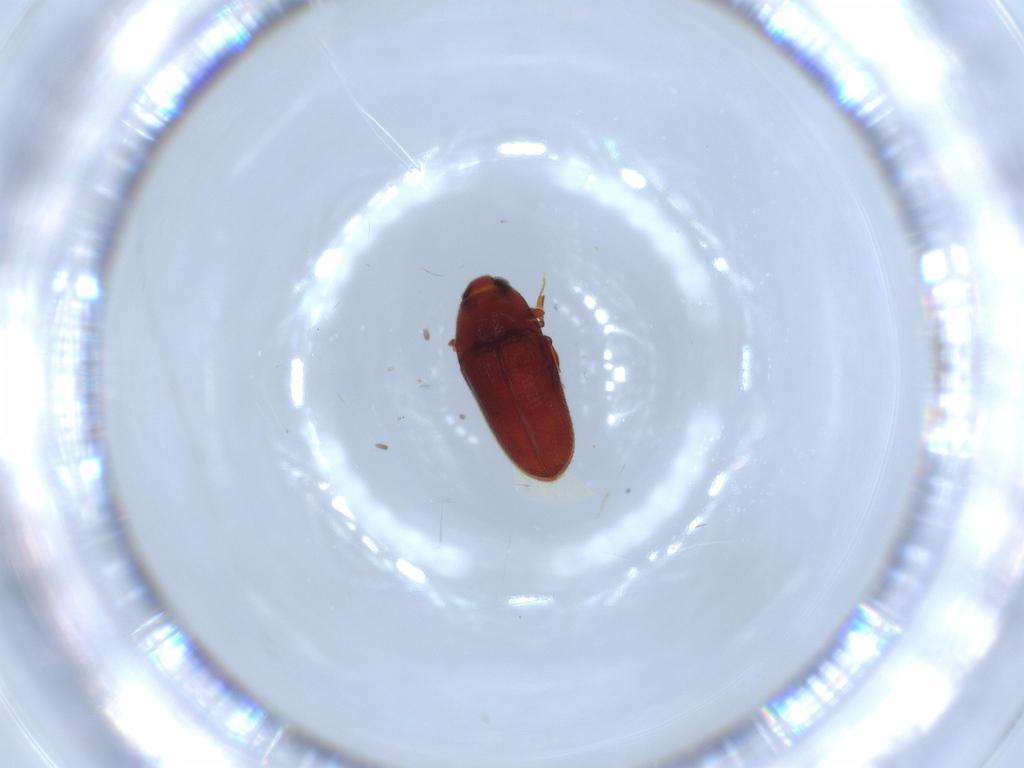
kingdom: Animalia
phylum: Arthropoda
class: Insecta
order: Coleoptera
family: Throscidae
